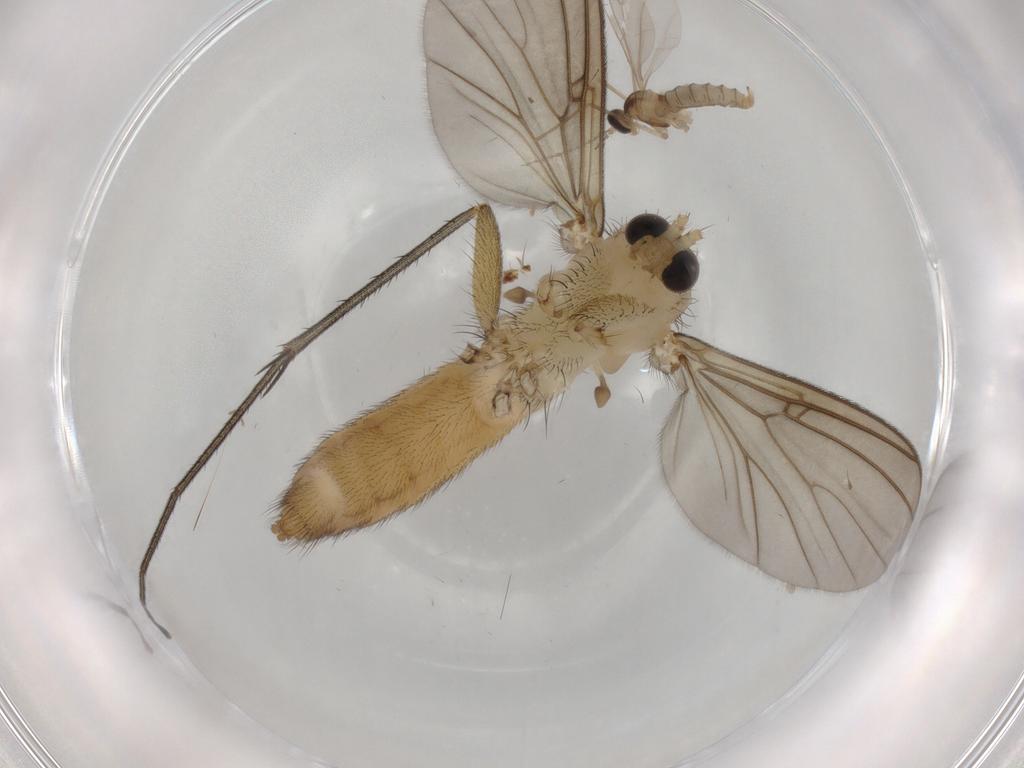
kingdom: Animalia
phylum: Arthropoda
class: Insecta
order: Diptera
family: Mycetophilidae
